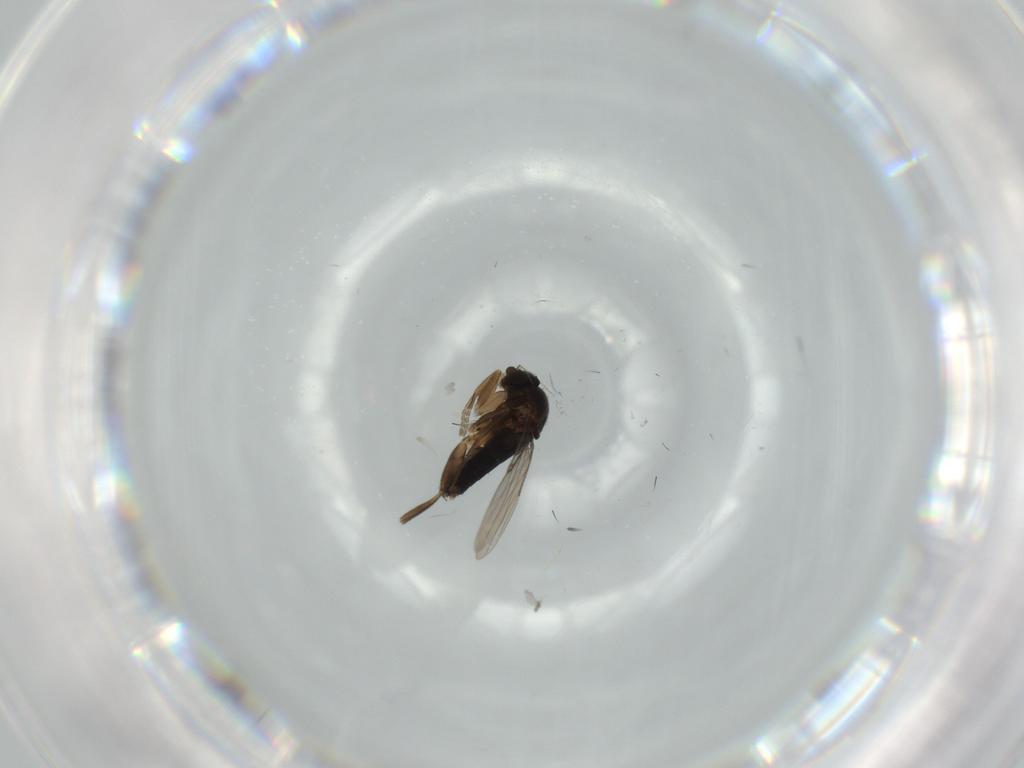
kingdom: Animalia
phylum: Arthropoda
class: Insecta
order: Diptera
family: Phoridae
